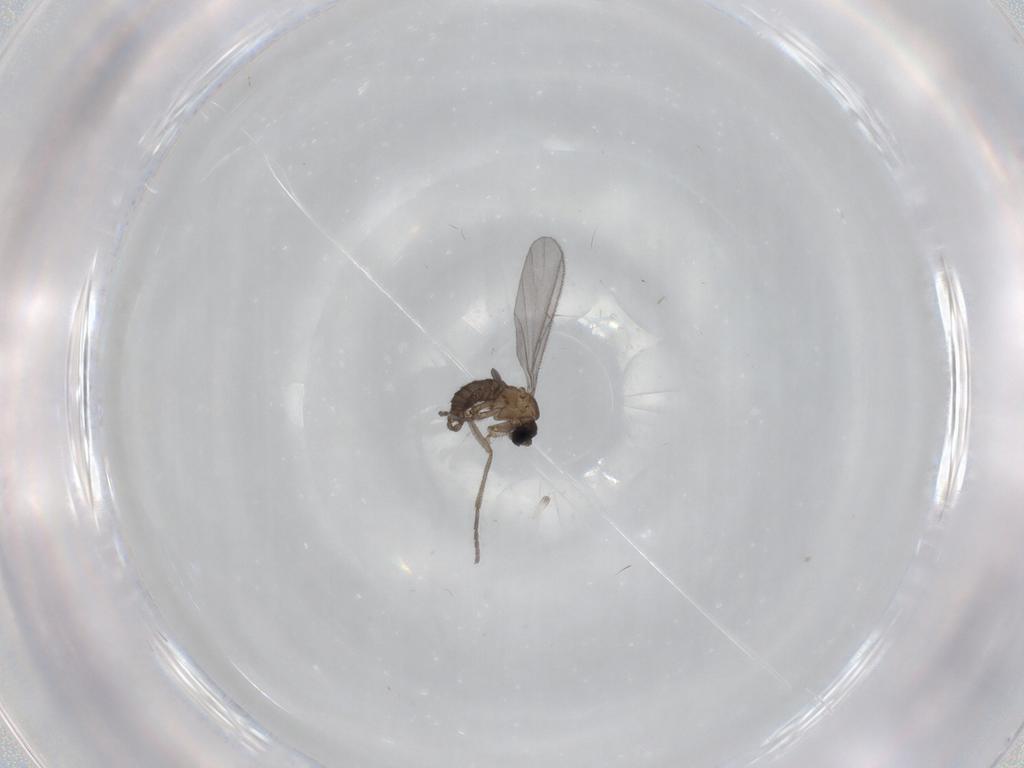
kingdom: Animalia
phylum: Arthropoda
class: Insecta
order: Diptera
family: Sciaridae
